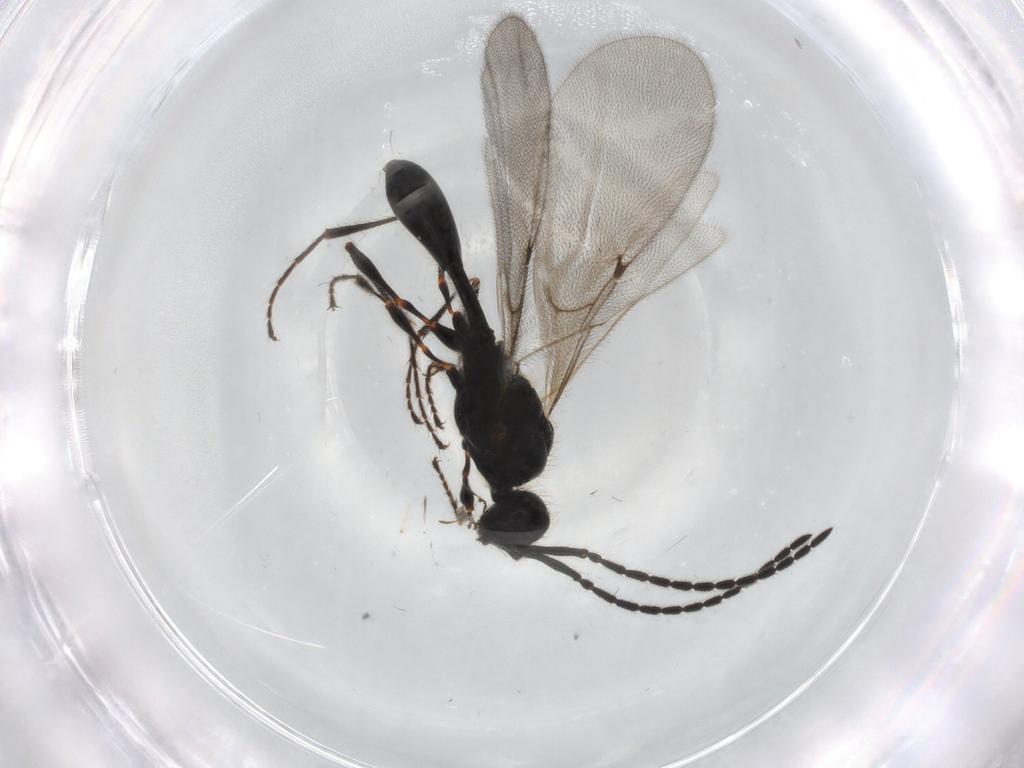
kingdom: Animalia
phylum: Arthropoda
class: Insecta
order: Hymenoptera
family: Diapriidae
